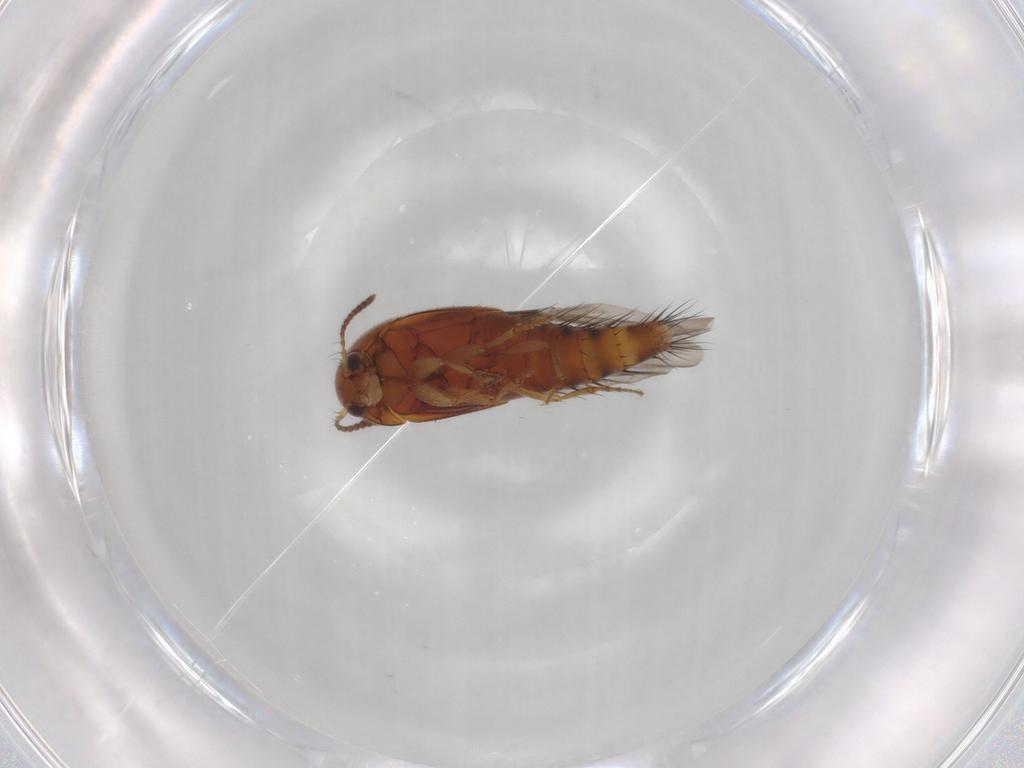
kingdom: Animalia
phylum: Arthropoda
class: Insecta
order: Coleoptera
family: Staphylinidae
